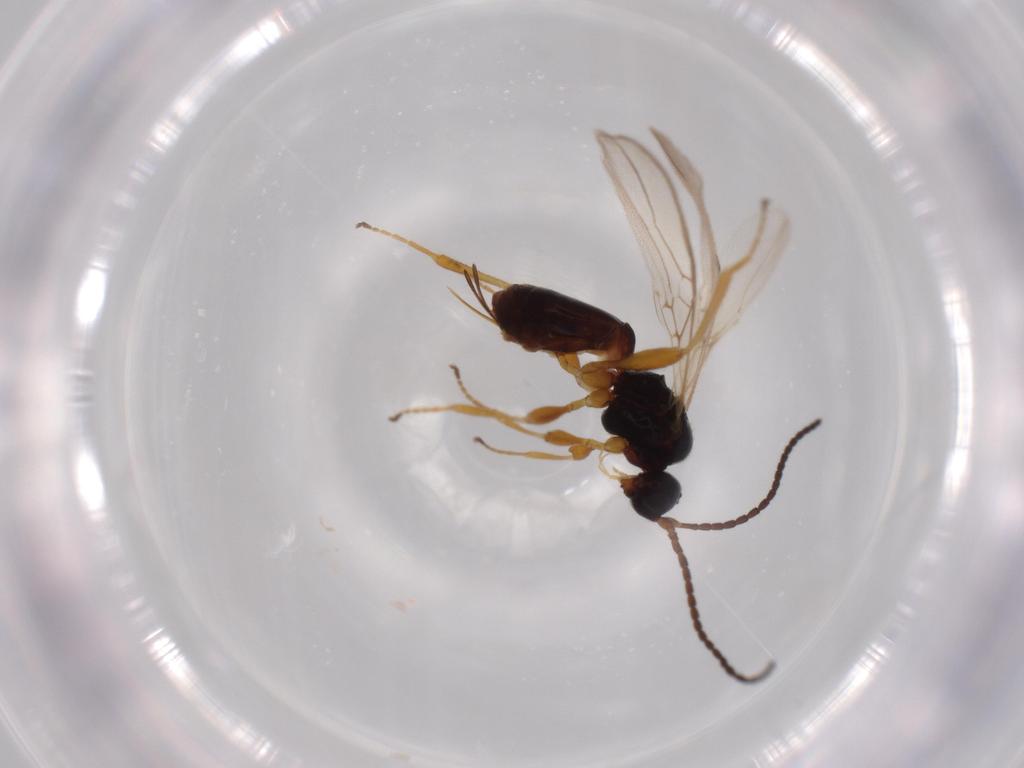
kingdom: Animalia
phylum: Arthropoda
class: Insecta
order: Hymenoptera
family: Braconidae
